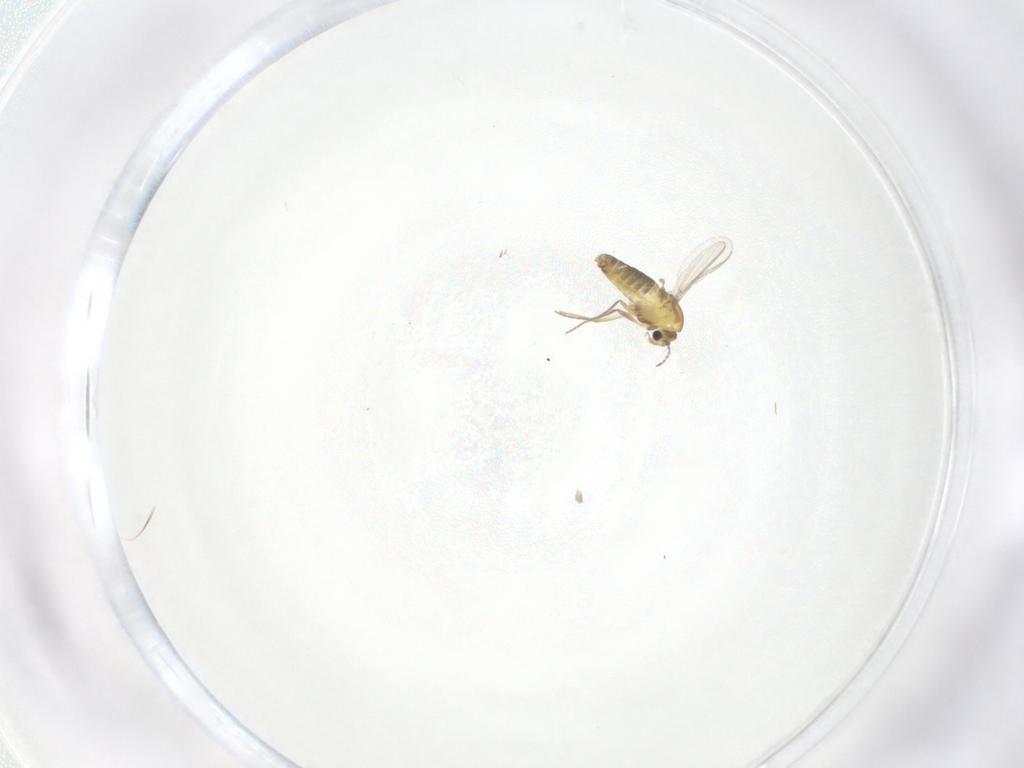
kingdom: Animalia
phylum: Arthropoda
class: Insecta
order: Diptera
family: Chironomidae
